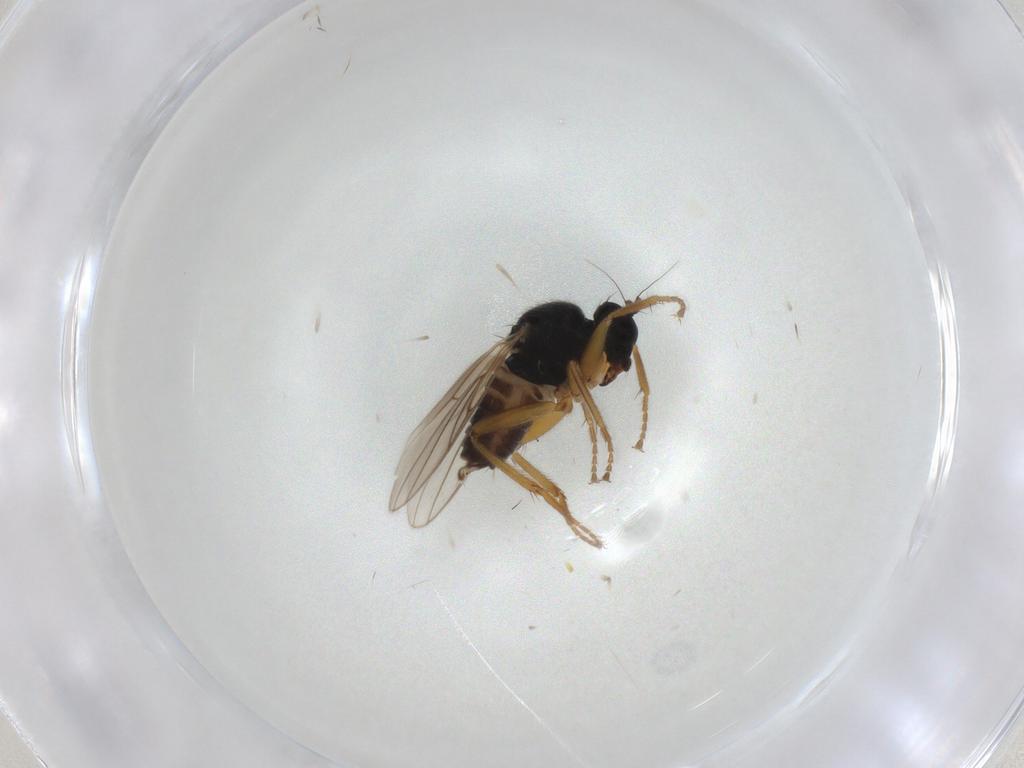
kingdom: Animalia
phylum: Arthropoda
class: Insecta
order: Diptera
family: Hybotidae
